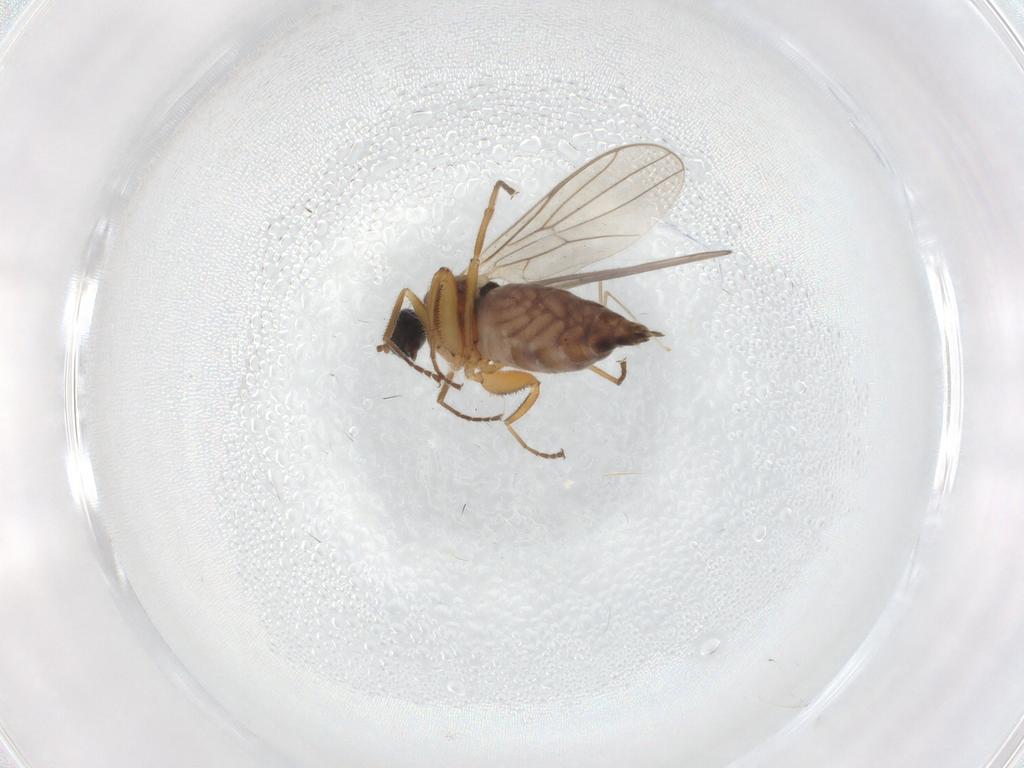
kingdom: Animalia
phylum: Arthropoda
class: Insecta
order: Diptera
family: Hybotidae
